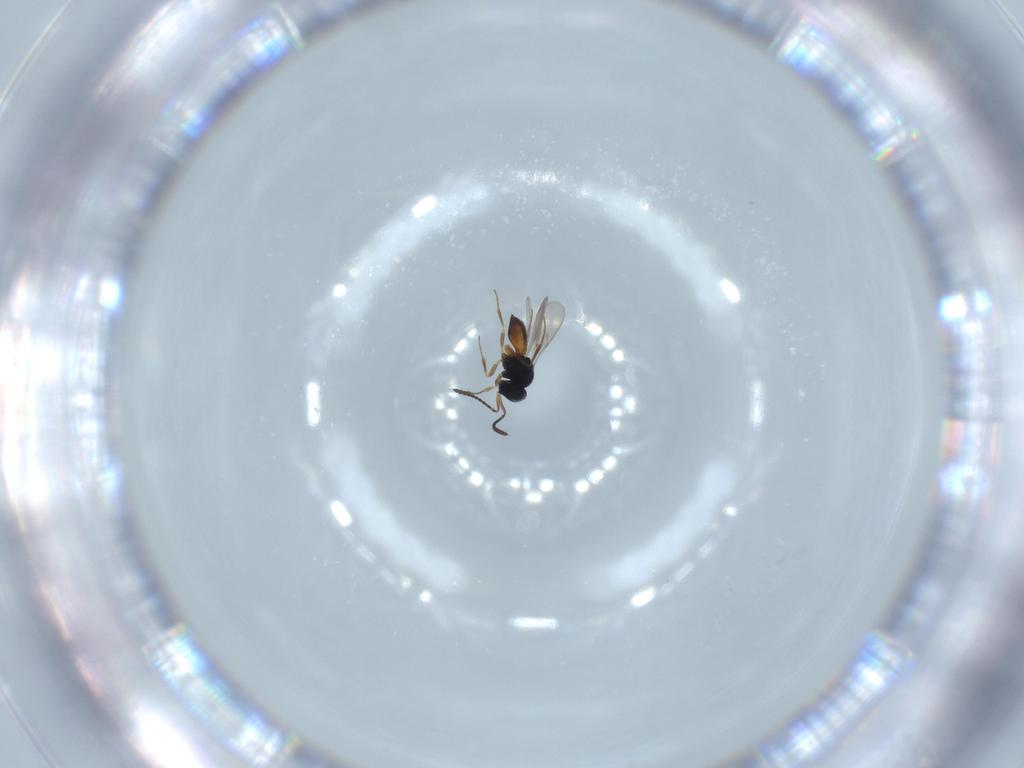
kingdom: Animalia
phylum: Arthropoda
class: Insecta
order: Hymenoptera
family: Scelionidae
